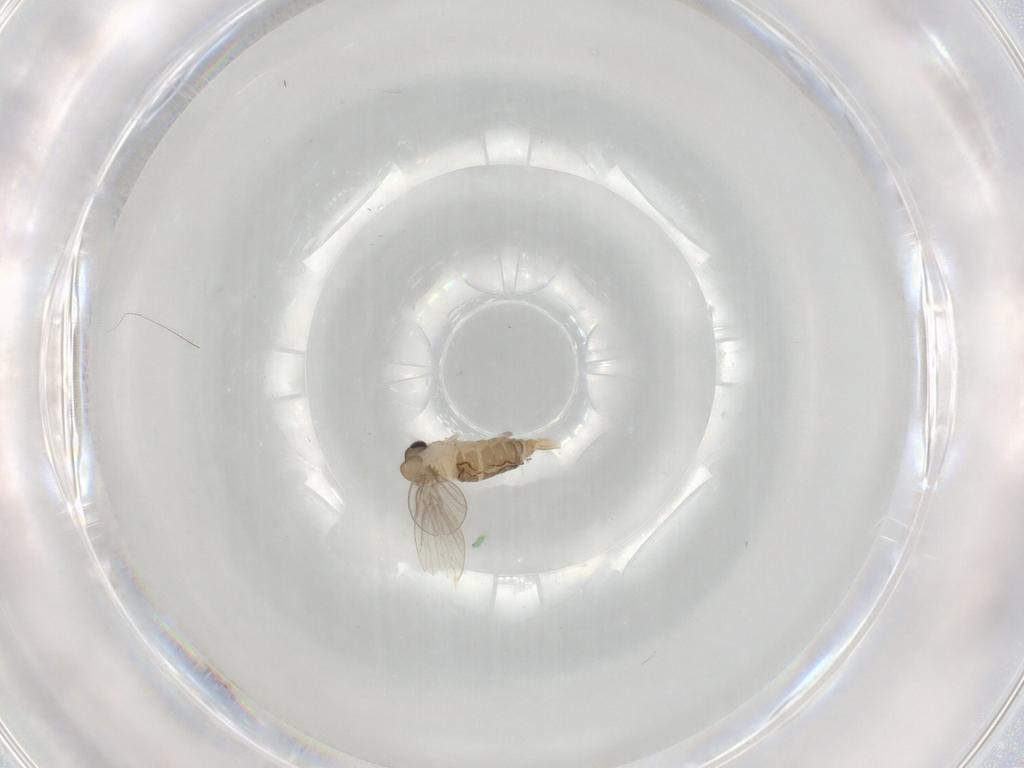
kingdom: Animalia
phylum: Arthropoda
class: Insecta
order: Diptera
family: Psychodidae
